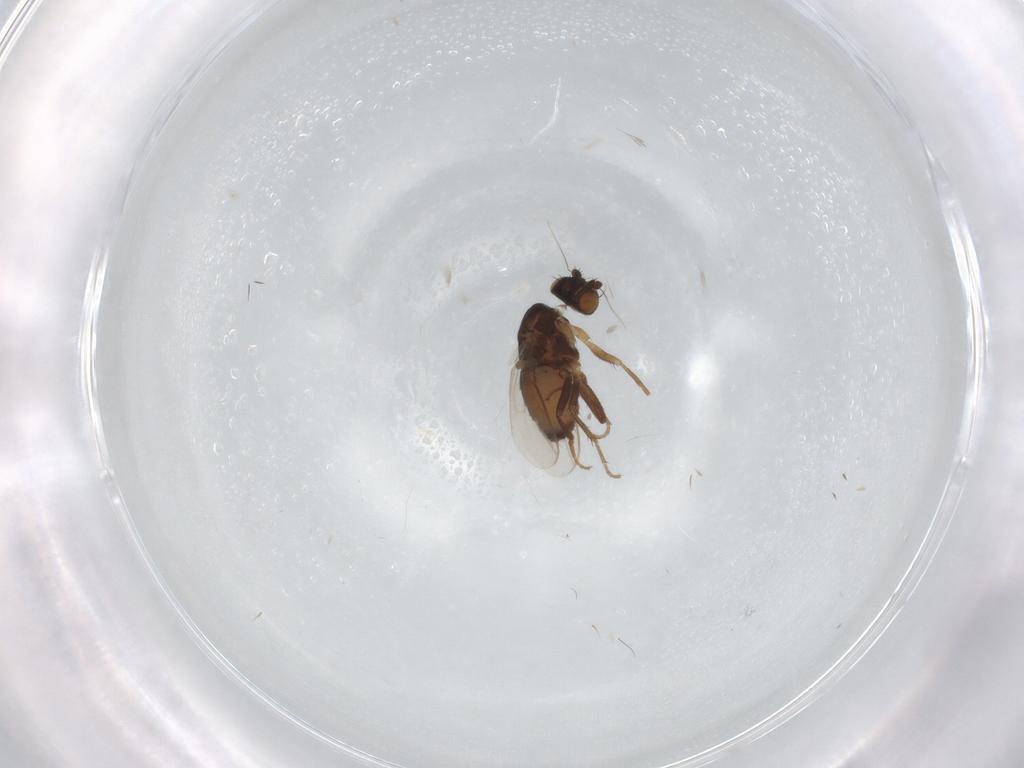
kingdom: Animalia
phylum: Arthropoda
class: Insecta
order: Diptera
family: Sphaeroceridae
